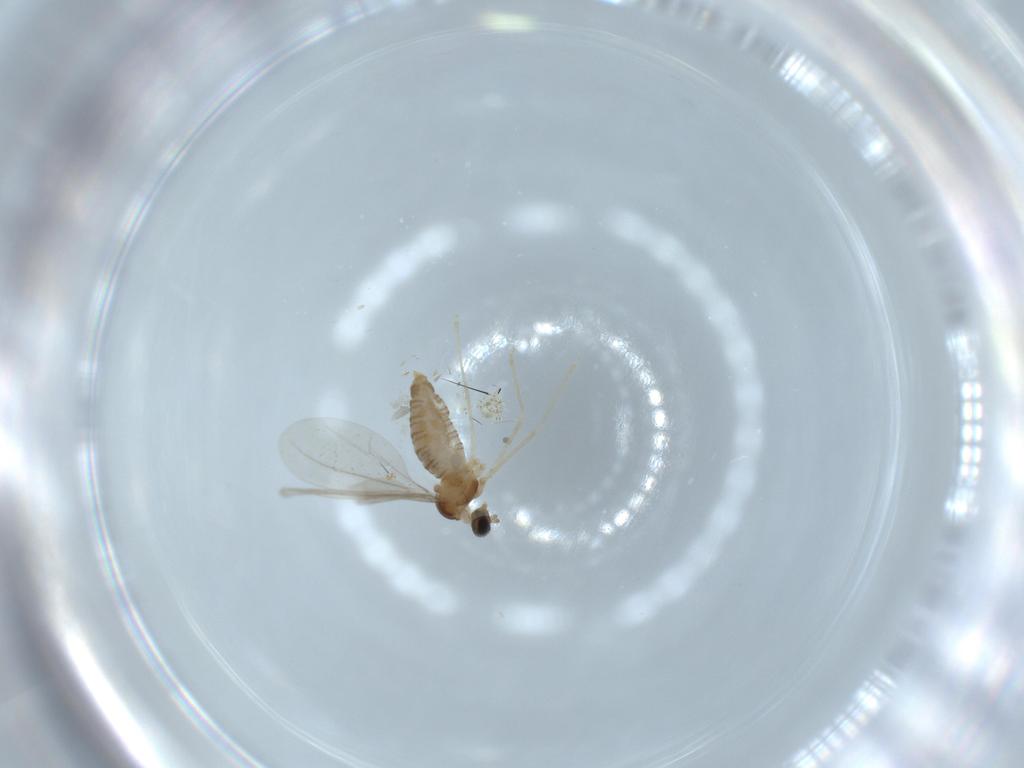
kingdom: Animalia
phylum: Arthropoda
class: Insecta
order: Diptera
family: Cecidomyiidae
